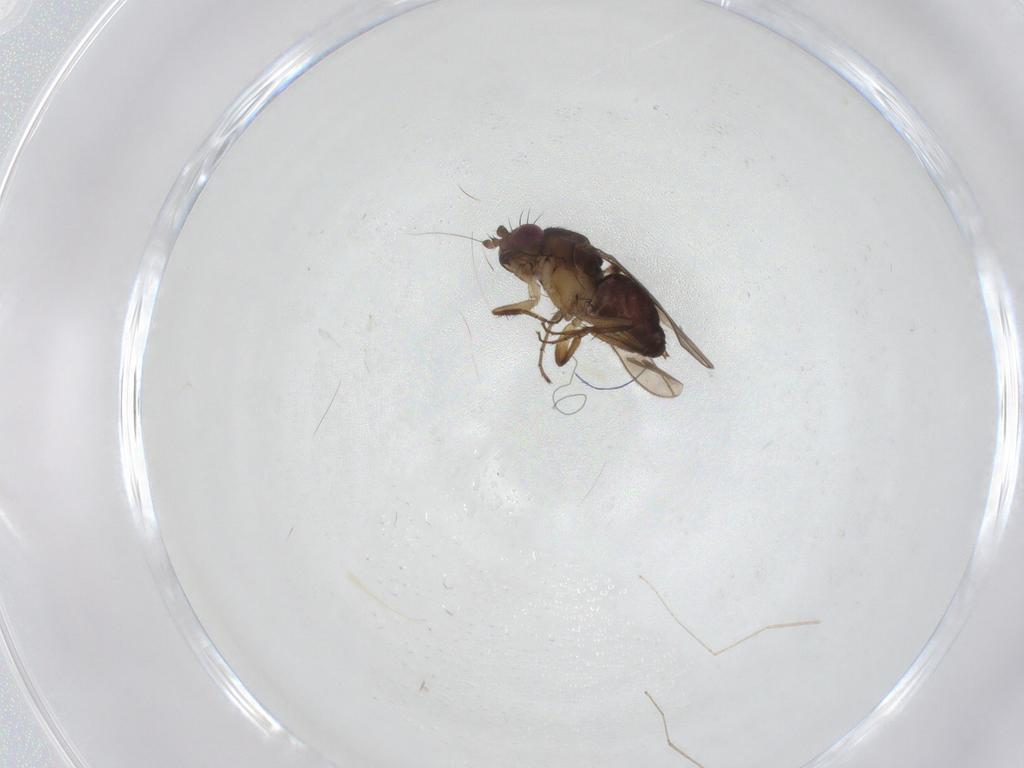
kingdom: Animalia
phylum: Arthropoda
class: Insecta
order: Diptera
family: Sphaeroceridae
